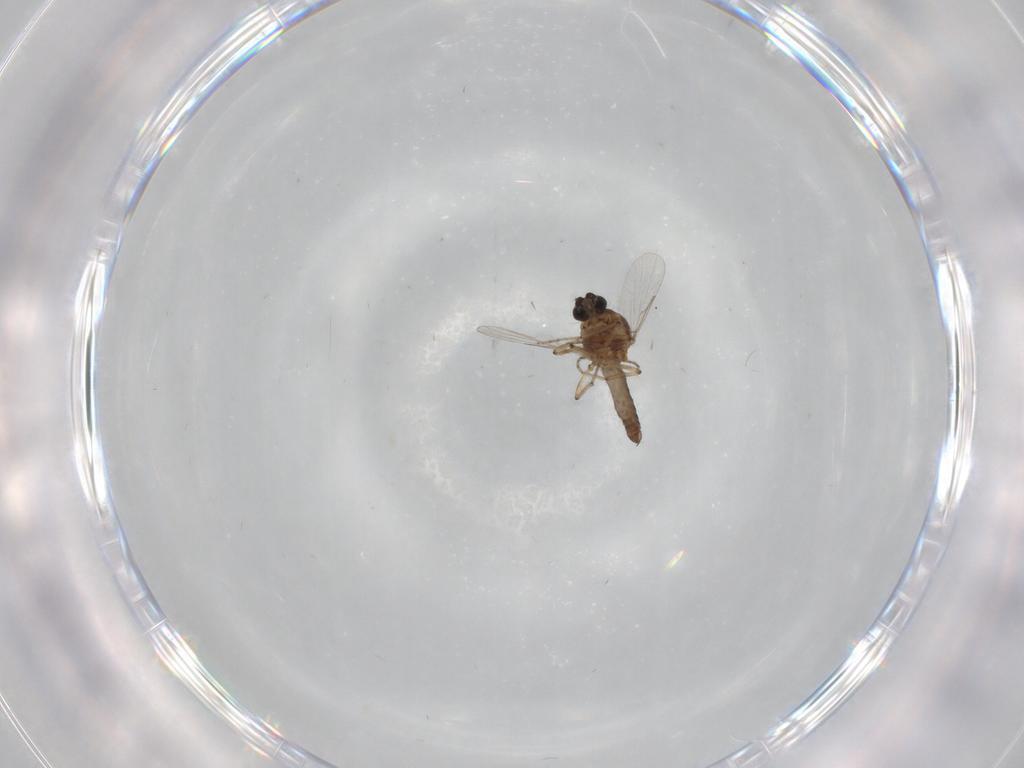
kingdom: Animalia
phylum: Arthropoda
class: Insecta
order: Diptera
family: Ceratopogonidae
